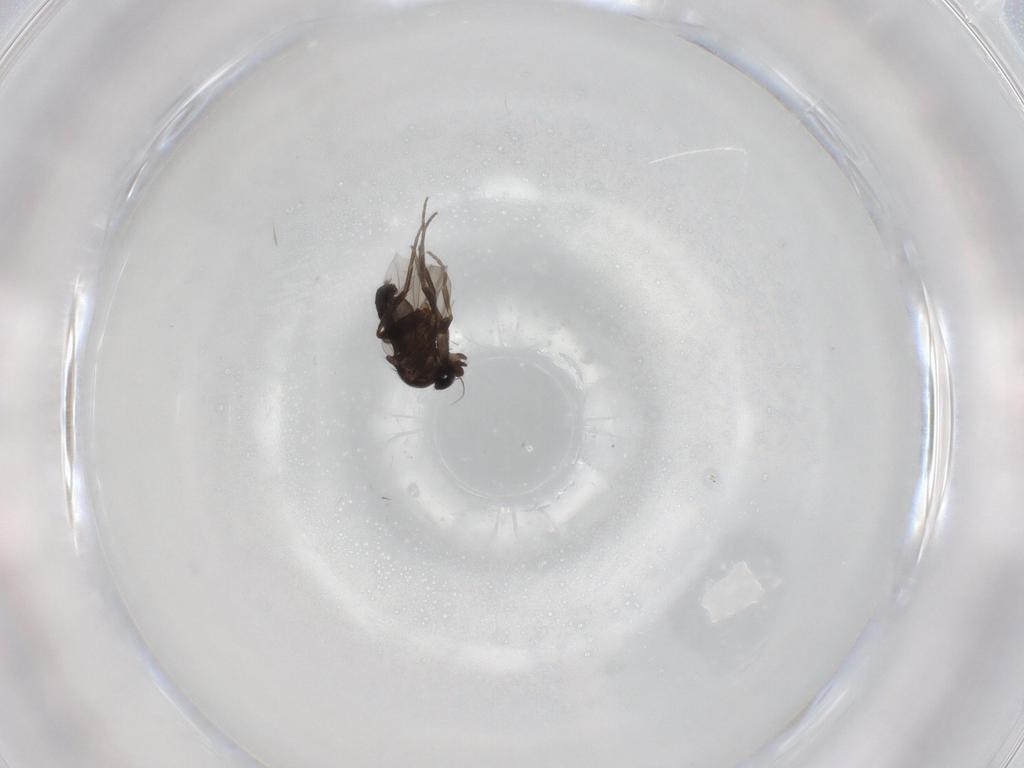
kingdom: Animalia
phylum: Arthropoda
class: Insecta
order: Diptera
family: Phoridae
